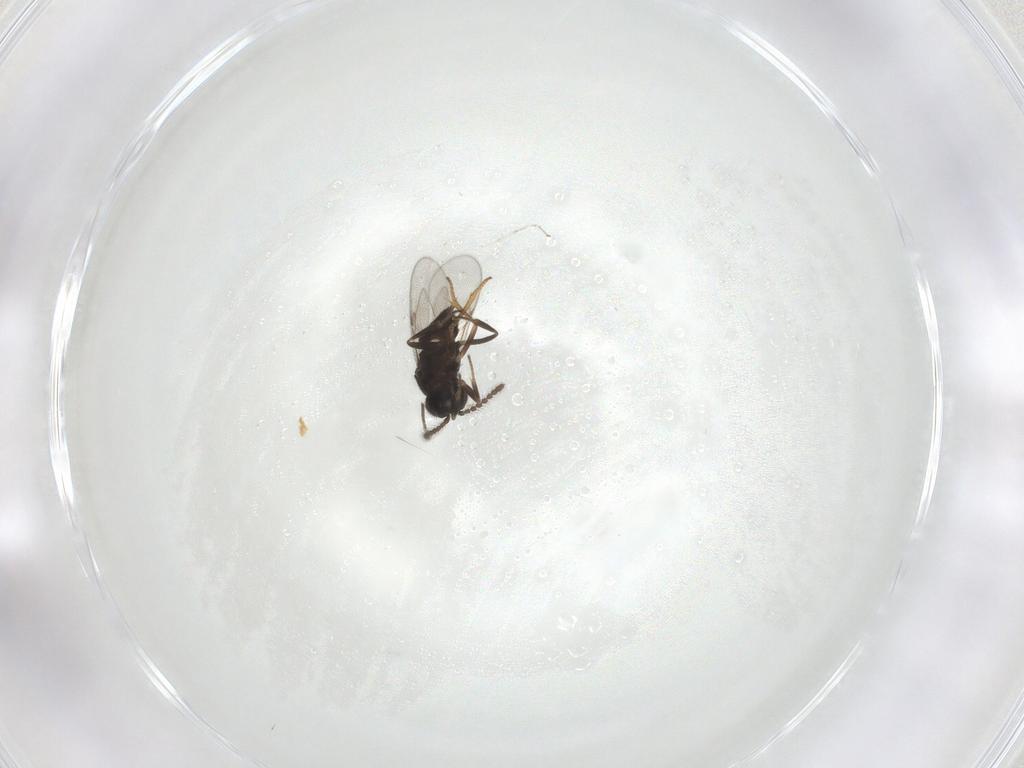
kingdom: Animalia
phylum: Arthropoda
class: Insecta
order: Hymenoptera
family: Encyrtidae
